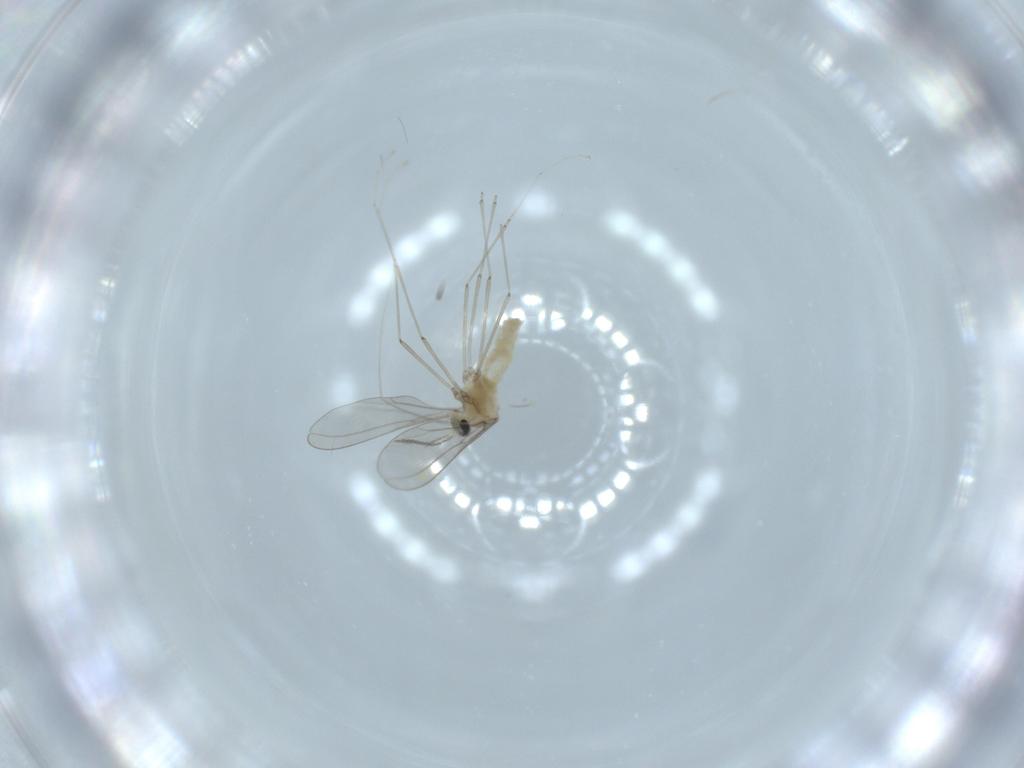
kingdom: Animalia
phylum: Arthropoda
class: Insecta
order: Diptera
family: Cecidomyiidae
